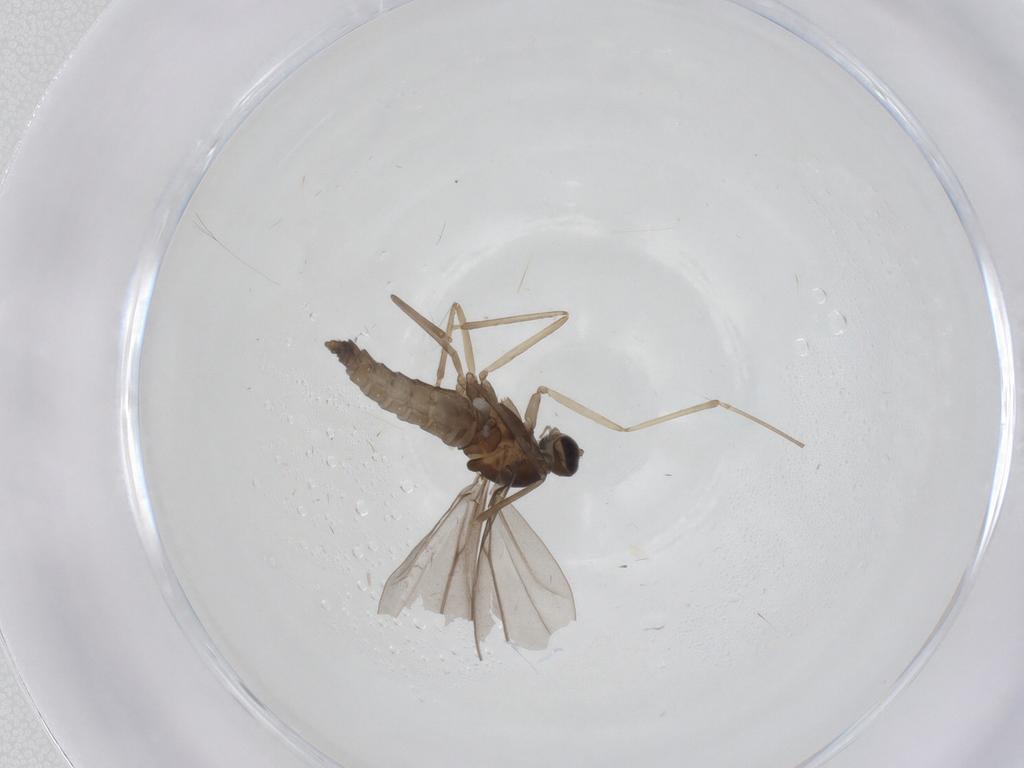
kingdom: Animalia
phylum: Arthropoda
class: Insecta
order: Diptera
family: Cecidomyiidae
